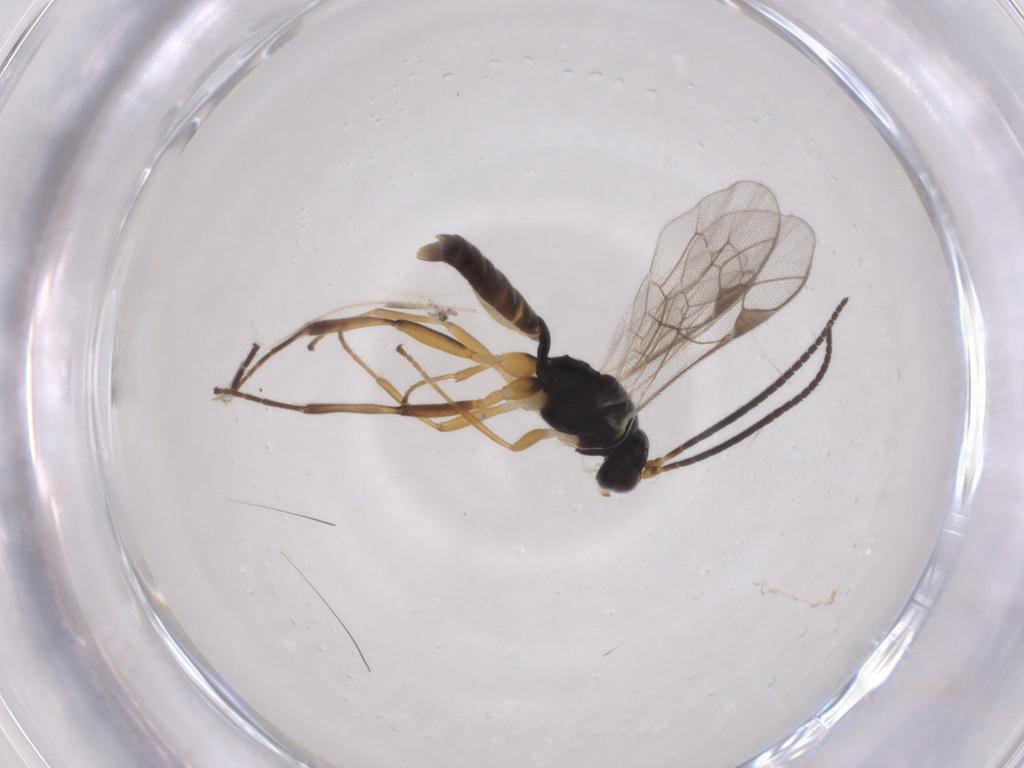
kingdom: Animalia
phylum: Arthropoda
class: Insecta
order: Hymenoptera
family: Ichneumonidae
